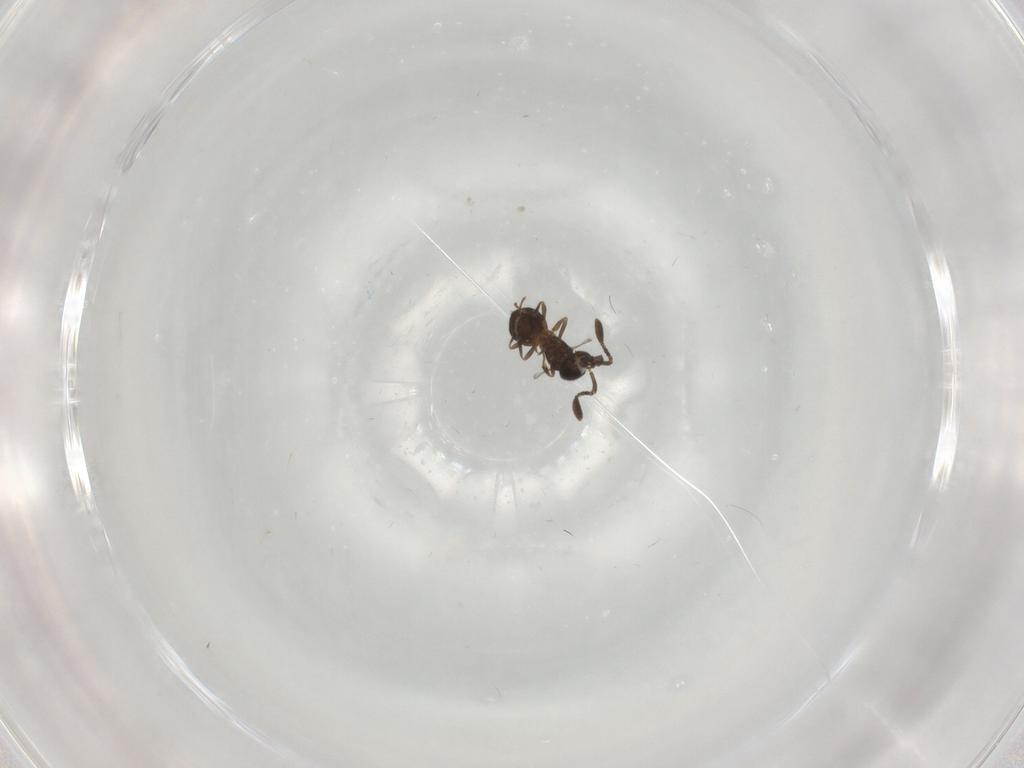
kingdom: Animalia
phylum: Arthropoda
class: Insecta
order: Hymenoptera
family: Scelionidae
